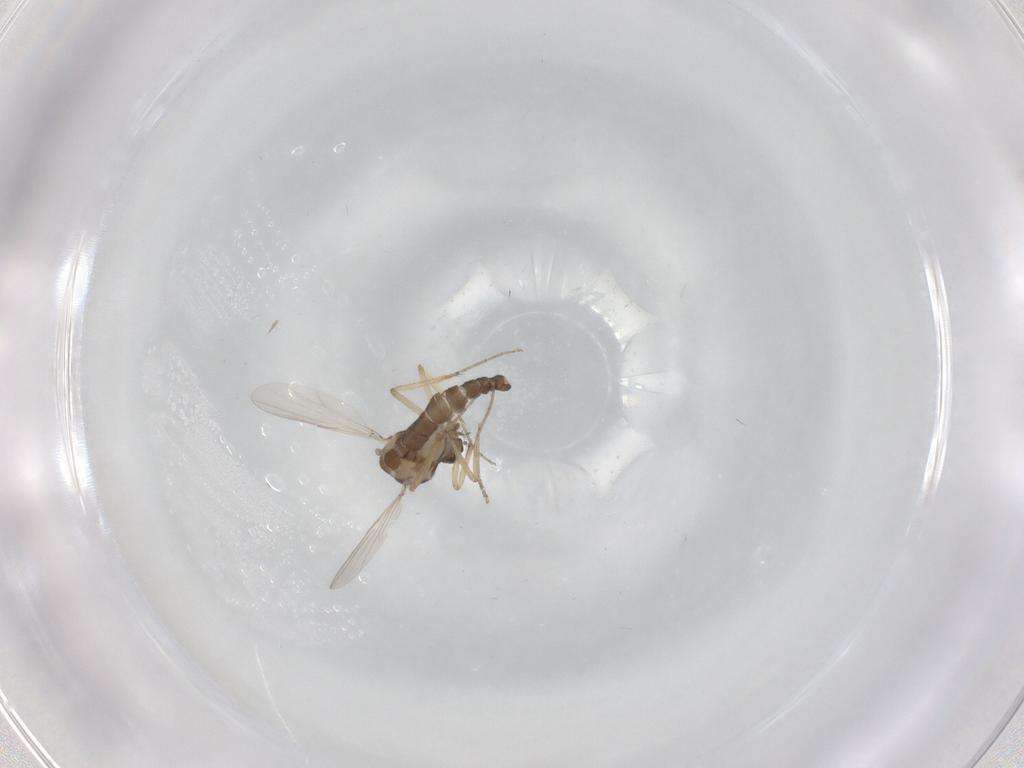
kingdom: Animalia
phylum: Arthropoda
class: Insecta
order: Diptera
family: Ceratopogonidae
